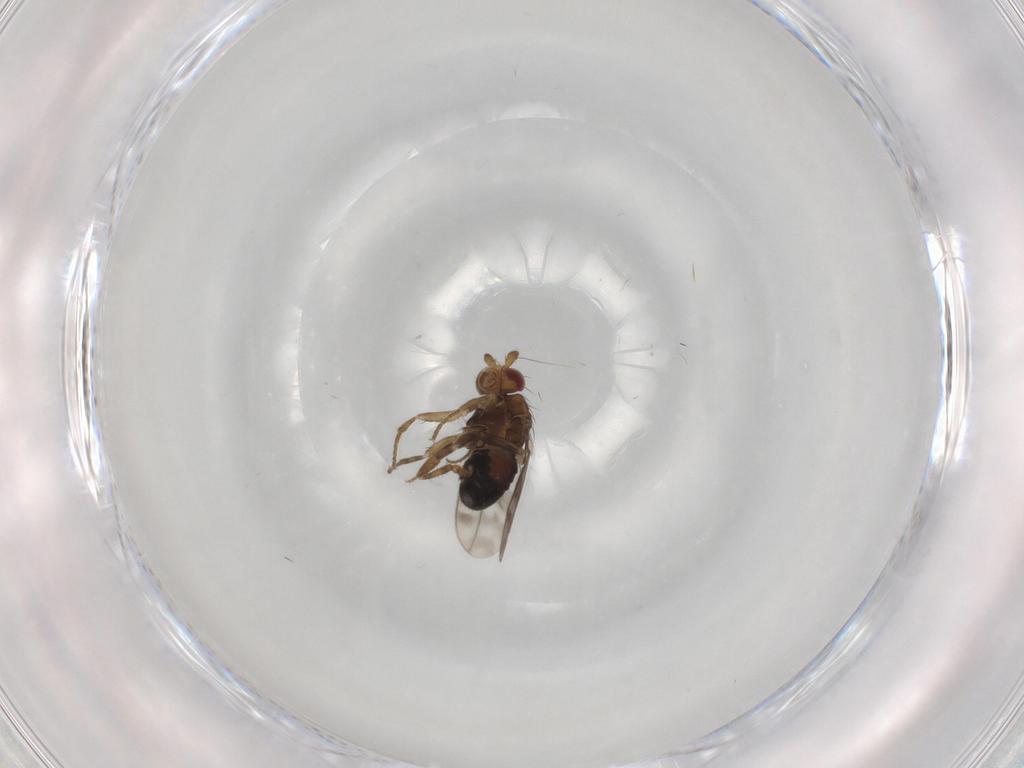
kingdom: Animalia
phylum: Arthropoda
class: Insecta
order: Diptera
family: Sphaeroceridae
